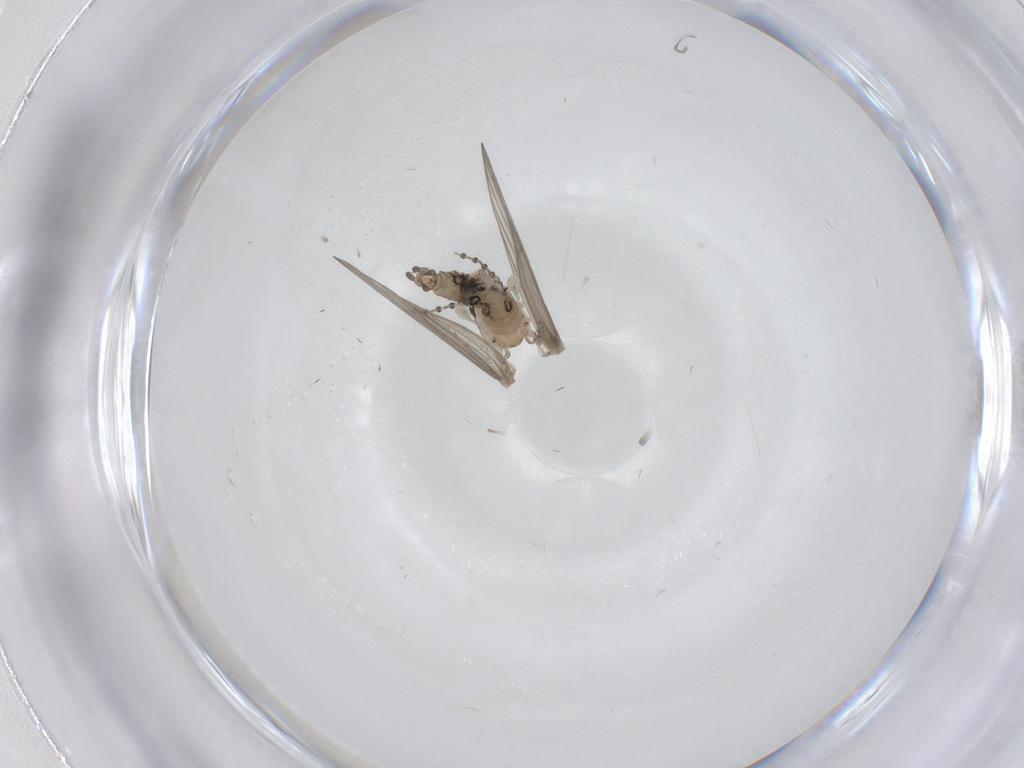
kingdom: Animalia
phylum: Arthropoda
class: Insecta
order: Diptera
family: Psychodidae
